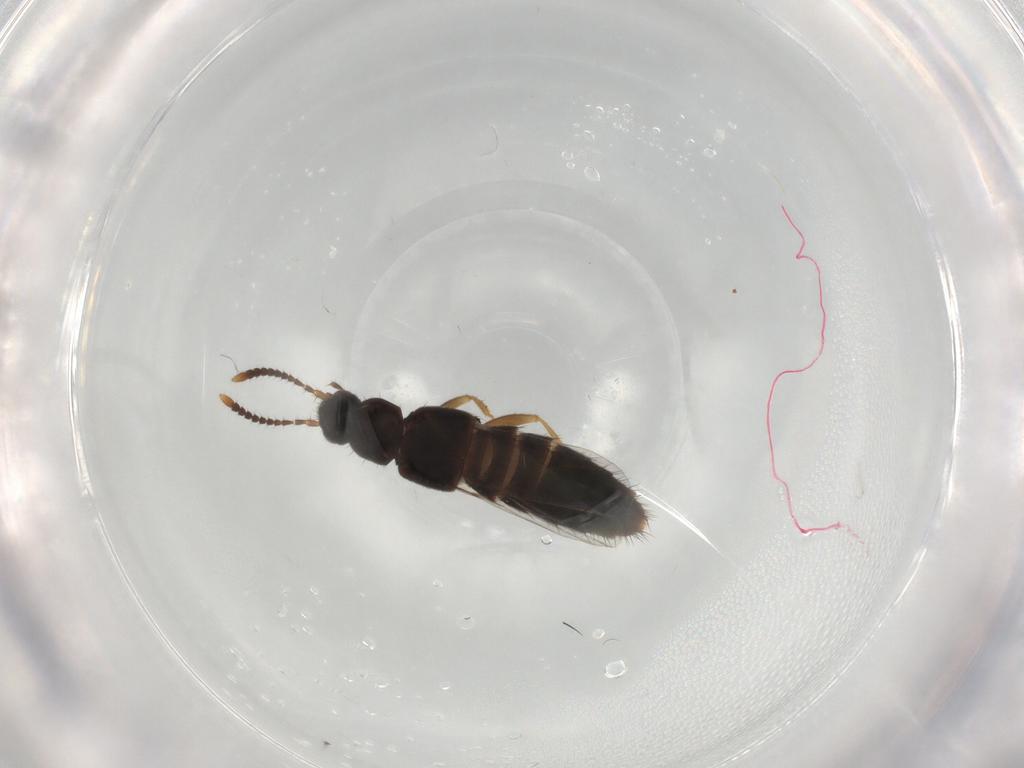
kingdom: Animalia
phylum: Arthropoda
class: Insecta
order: Coleoptera
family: Staphylinidae
